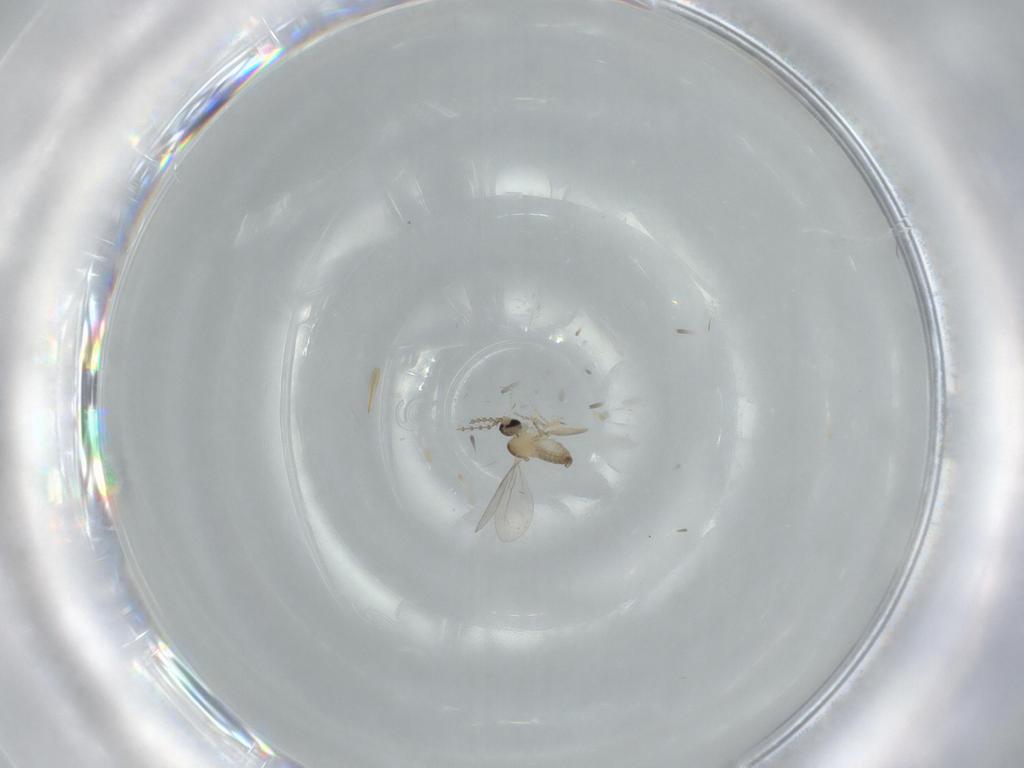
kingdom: Animalia
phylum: Arthropoda
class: Insecta
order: Diptera
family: Cecidomyiidae
